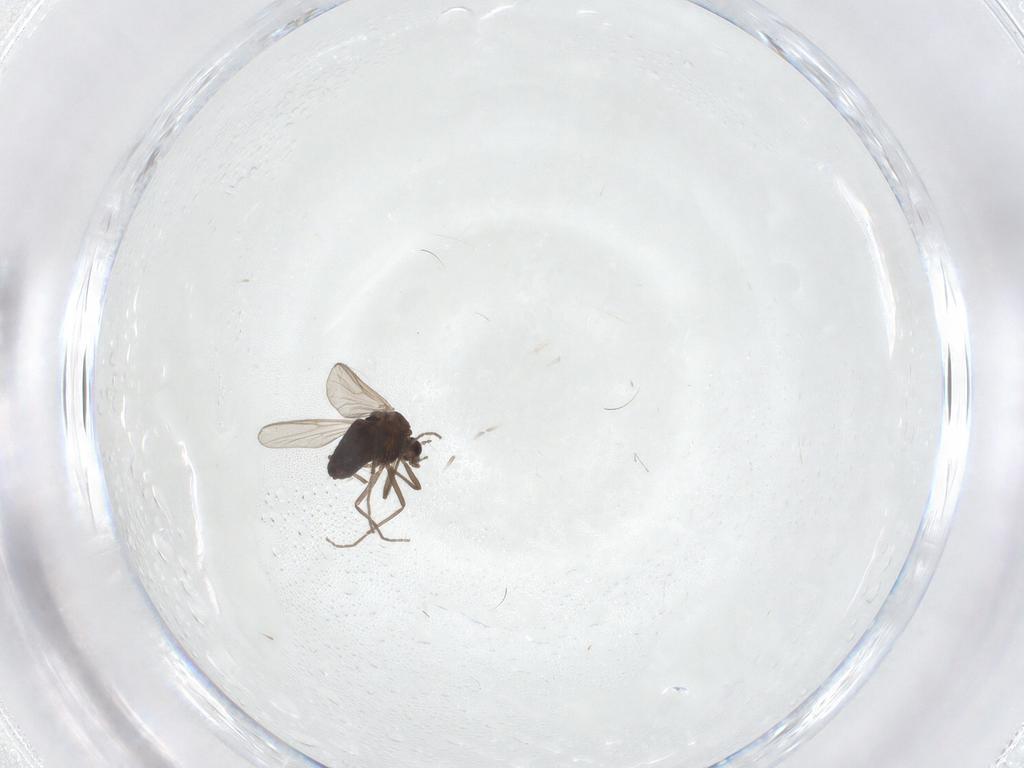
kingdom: Animalia
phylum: Arthropoda
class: Insecta
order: Diptera
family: Chironomidae
